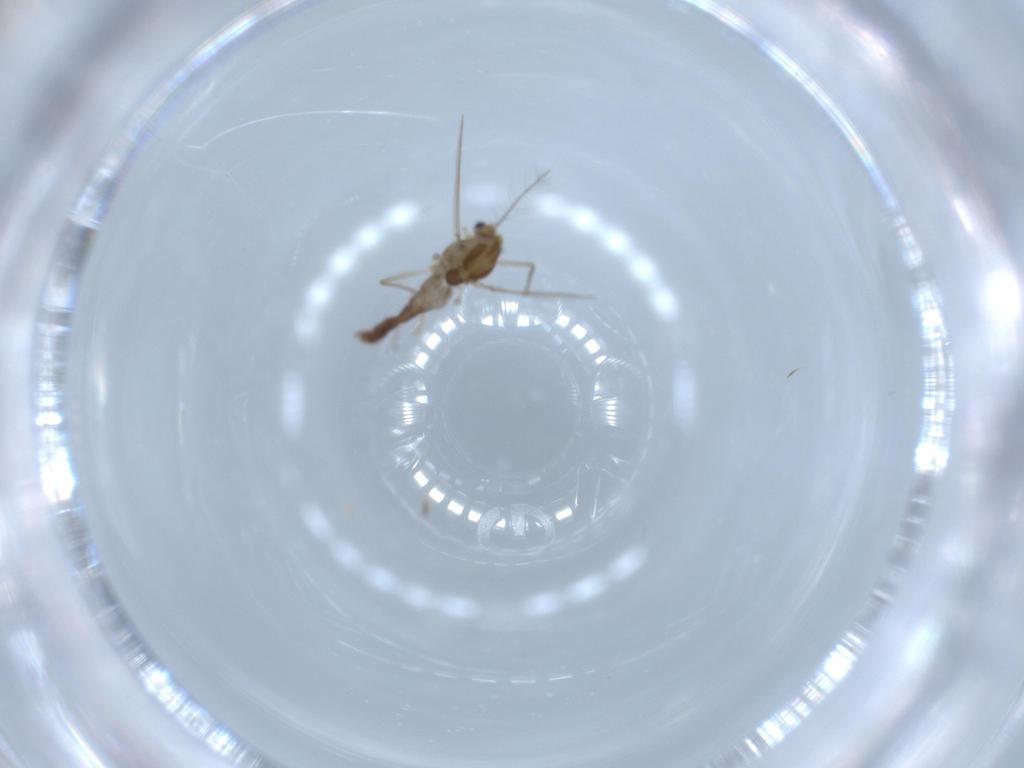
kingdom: Animalia
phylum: Arthropoda
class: Insecta
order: Diptera
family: Chironomidae
